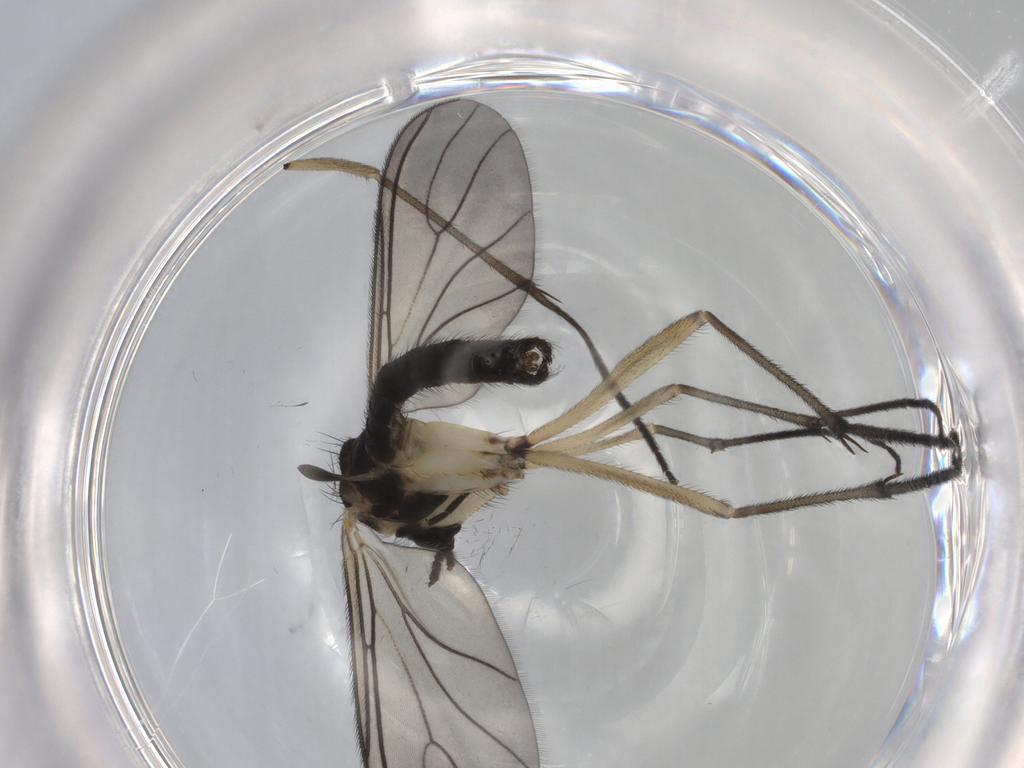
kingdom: Animalia
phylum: Arthropoda
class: Insecta
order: Diptera
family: Cecidomyiidae
